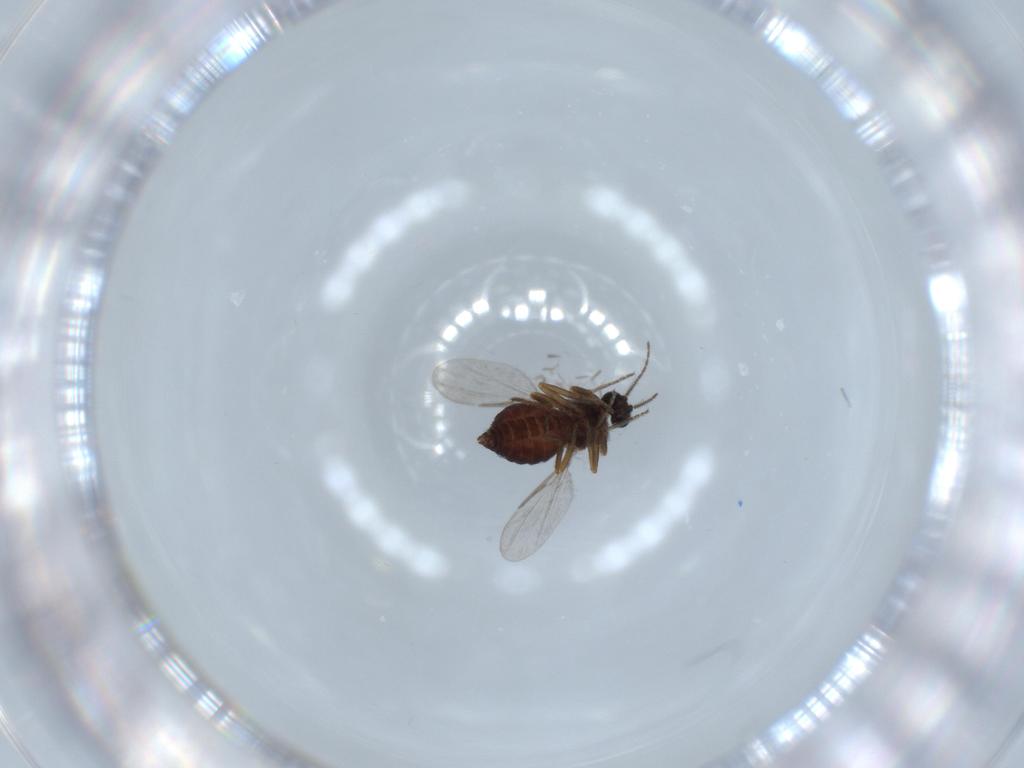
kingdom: Animalia
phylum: Arthropoda
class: Insecta
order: Diptera
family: Ceratopogonidae
